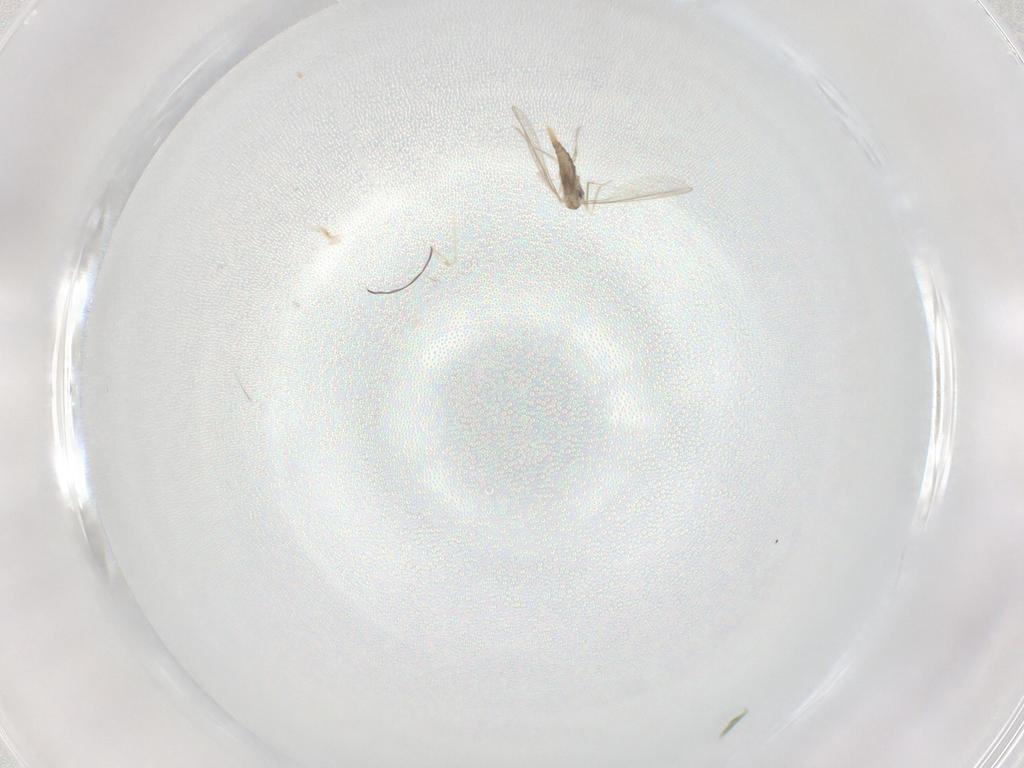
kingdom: Animalia
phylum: Arthropoda
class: Insecta
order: Diptera
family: Cecidomyiidae
